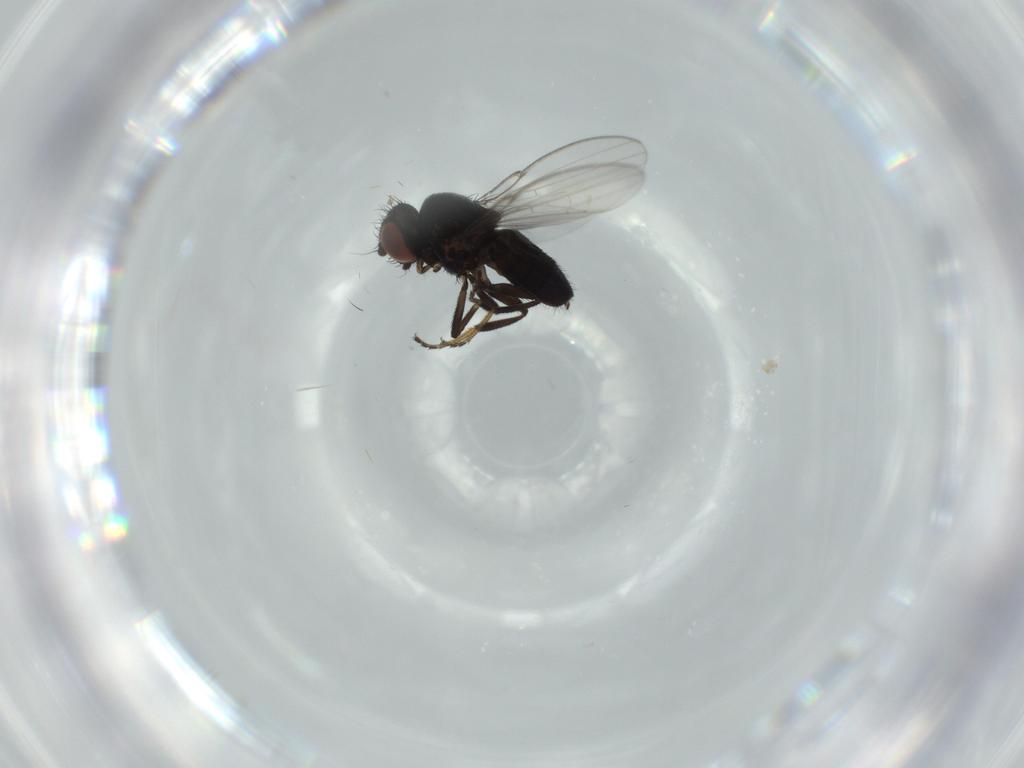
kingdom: Animalia
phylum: Arthropoda
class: Insecta
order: Diptera
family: Milichiidae
